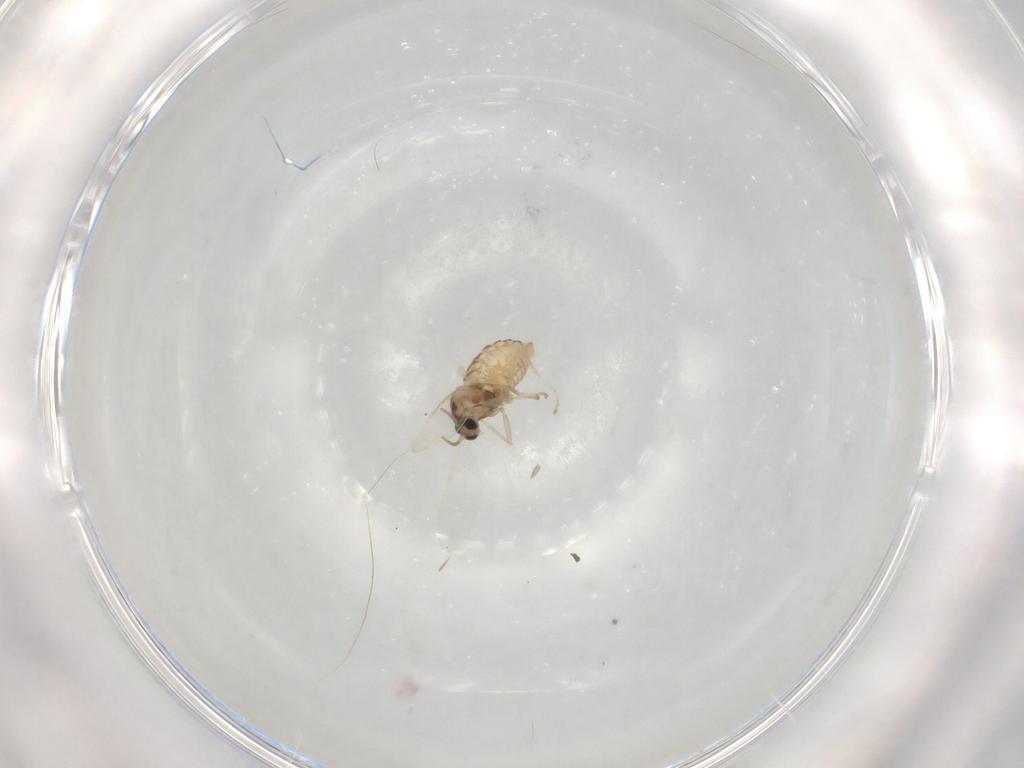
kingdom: Animalia
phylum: Arthropoda
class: Insecta
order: Diptera
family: Cecidomyiidae
